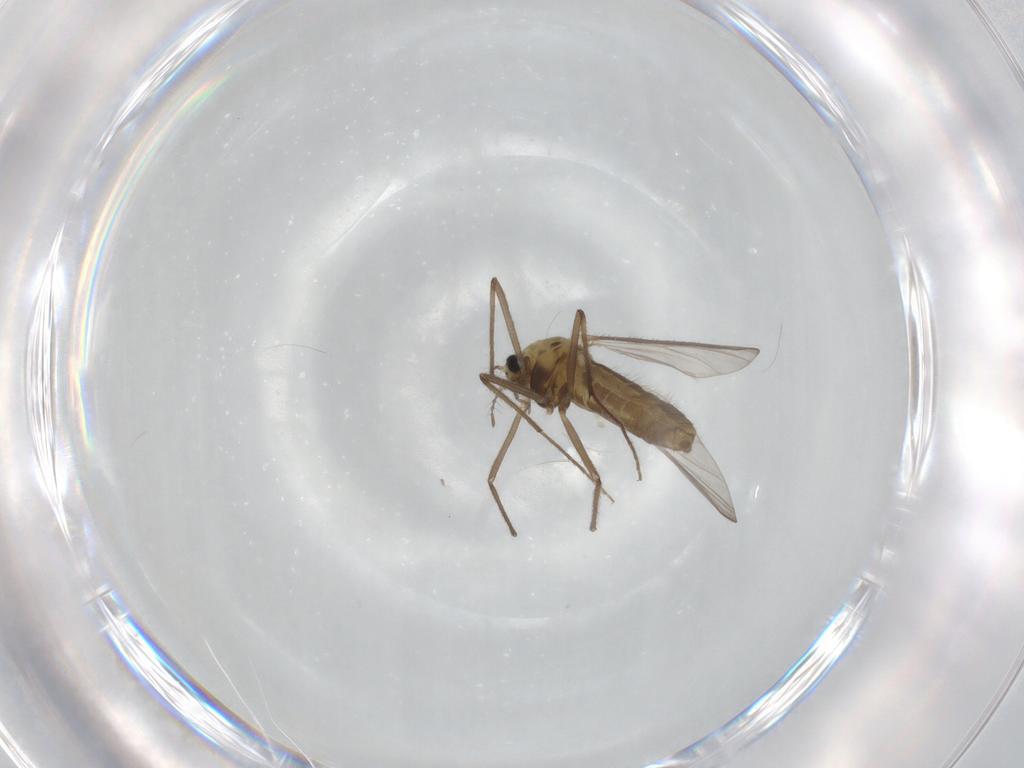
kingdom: Animalia
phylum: Arthropoda
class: Insecta
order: Diptera
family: Chironomidae
